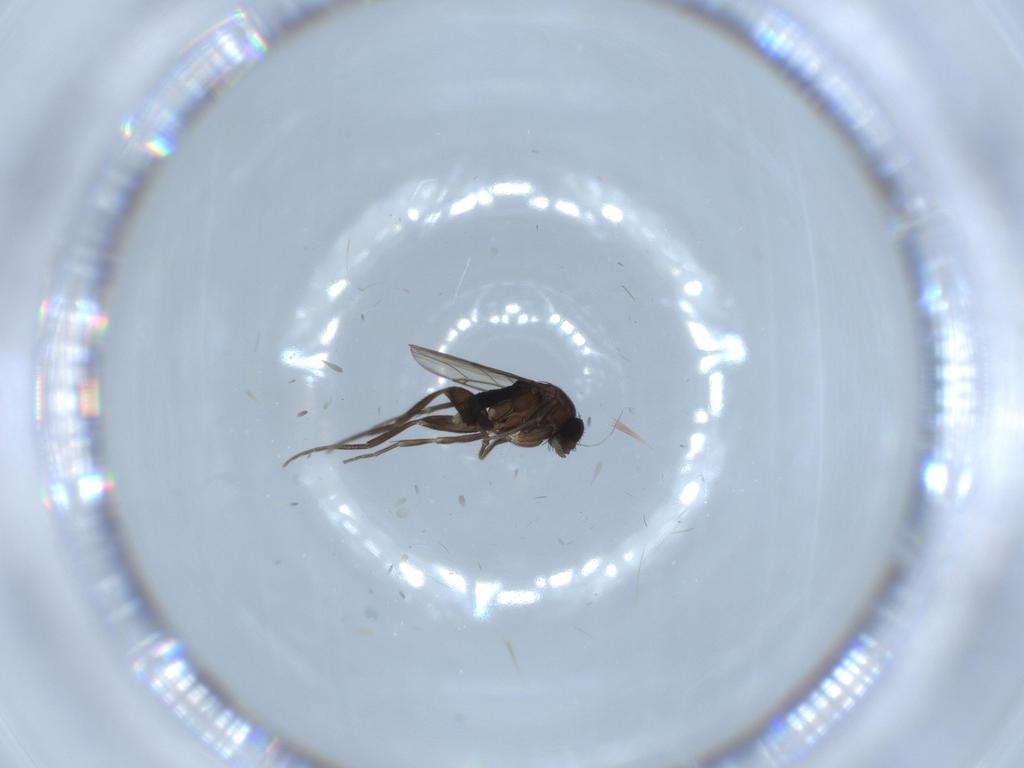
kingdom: Animalia
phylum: Arthropoda
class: Insecta
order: Diptera
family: Phoridae
